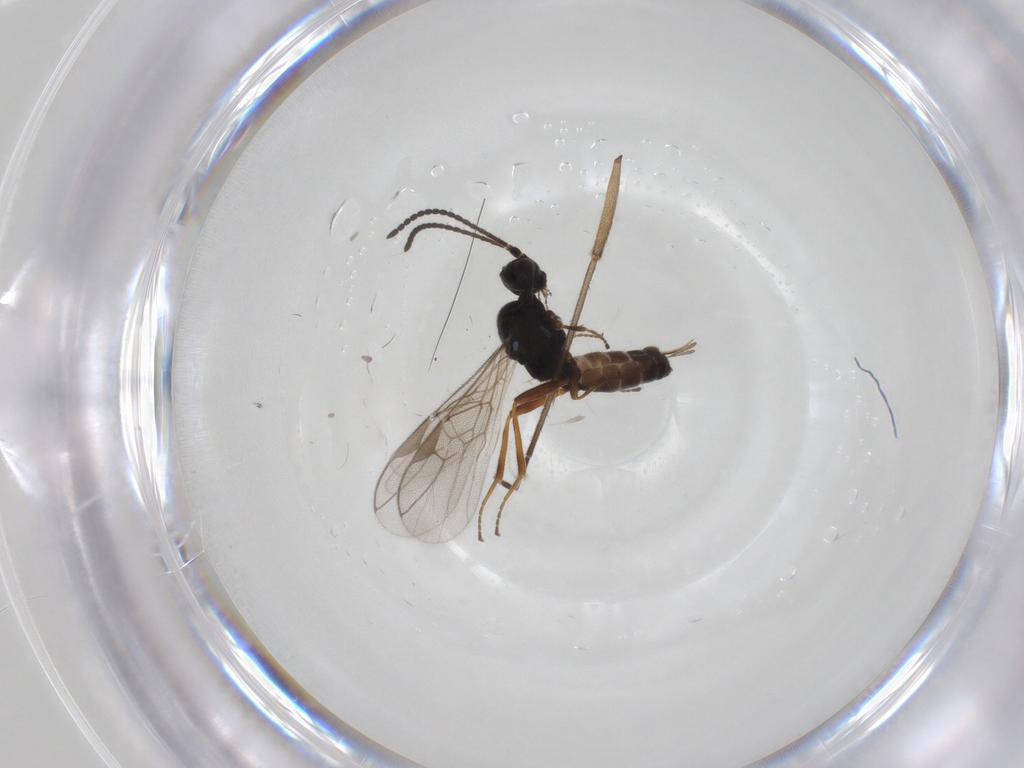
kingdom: Animalia
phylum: Arthropoda
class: Insecta
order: Hymenoptera
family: Braconidae
